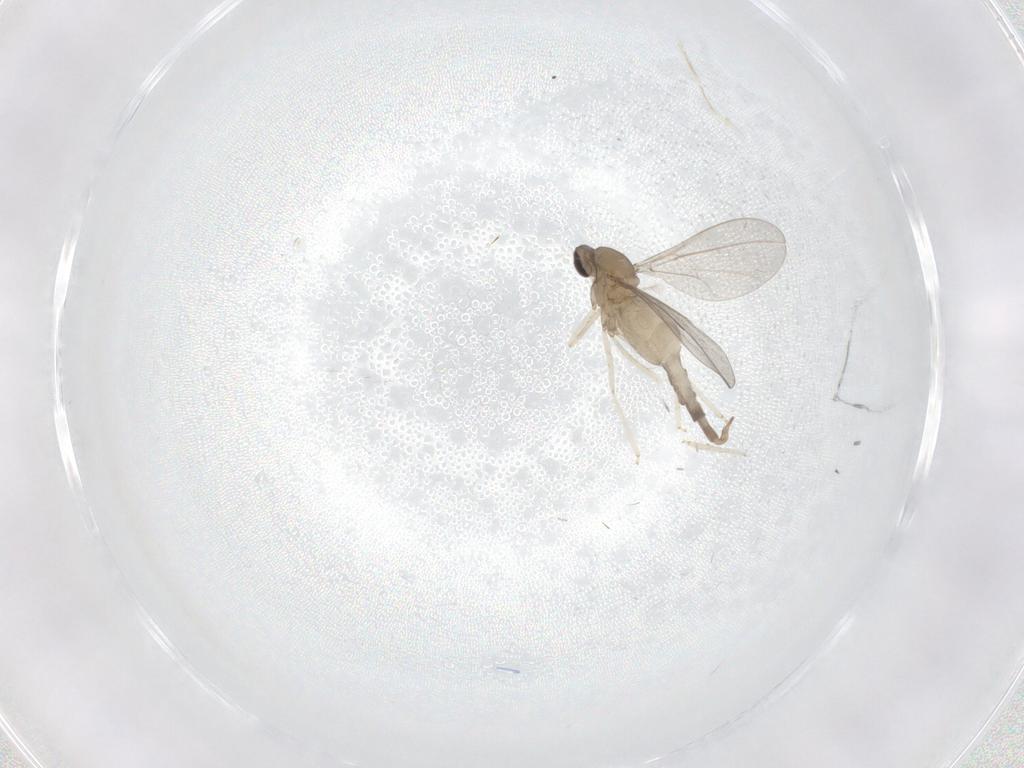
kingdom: Animalia
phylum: Arthropoda
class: Insecta
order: Diptera
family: Cecidomyiidae
